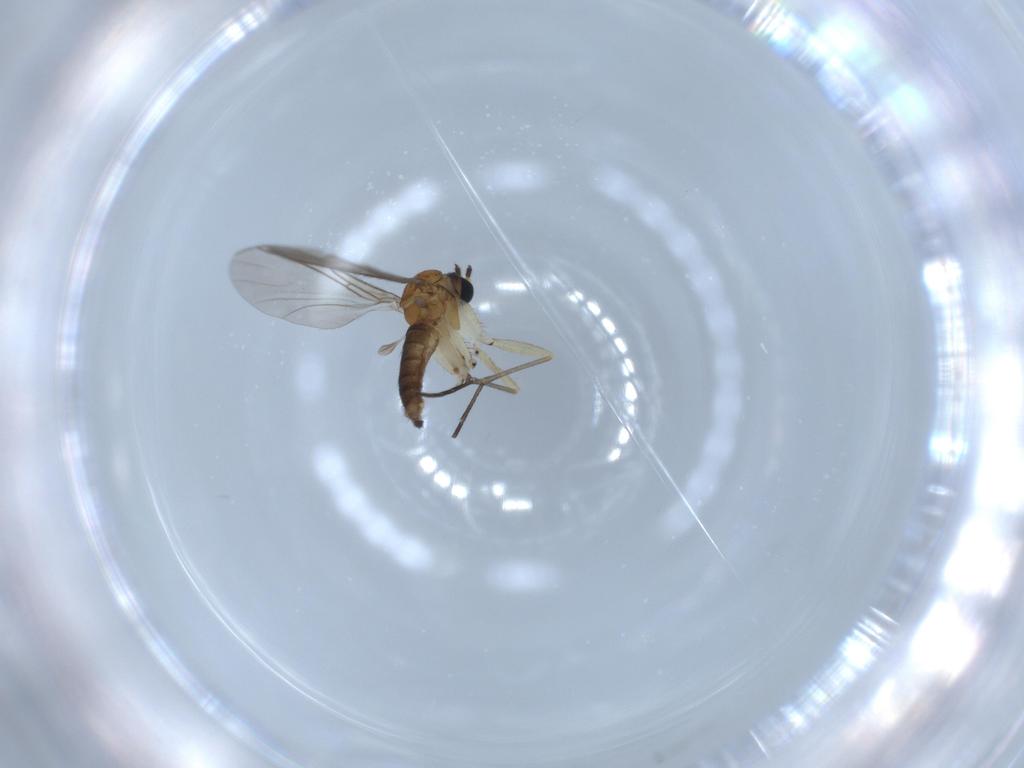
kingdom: Animalia
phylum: Arthropoda
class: Insecta
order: Diptera
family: Sciaridae
